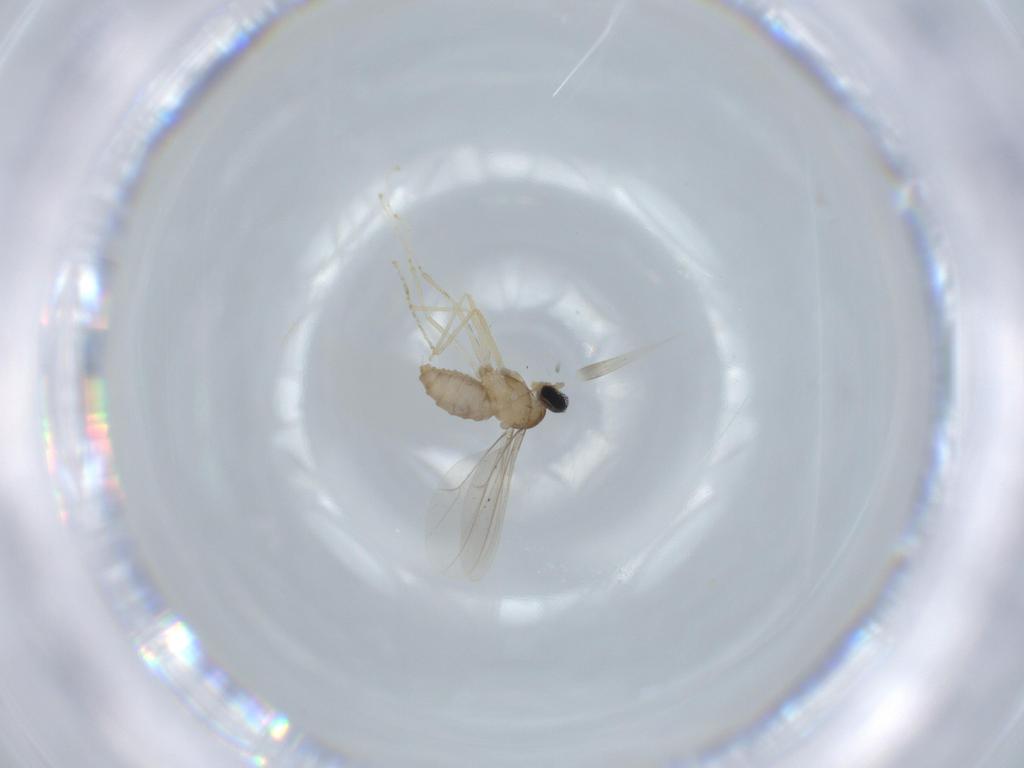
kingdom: Animalia
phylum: Arthropoda
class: Insecta
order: Diptera
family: Cecidomyiidae
